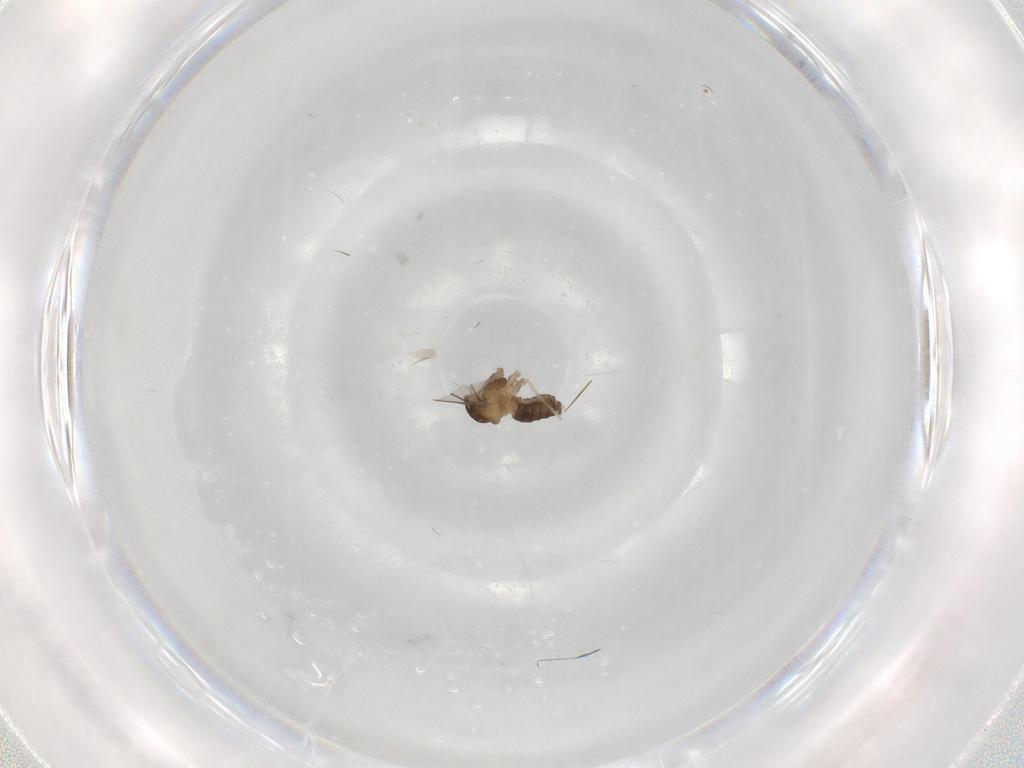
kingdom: Animalia
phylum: Arthropoda
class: Insecta
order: Diptera
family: Cecidomyiidae
